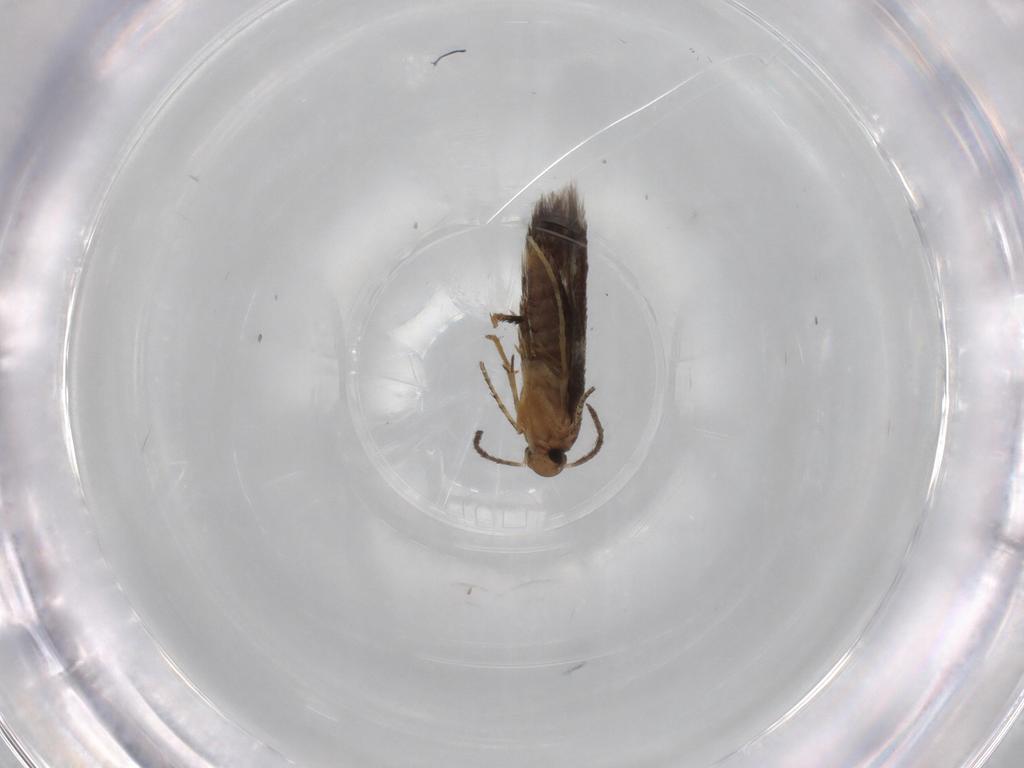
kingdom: Animalia
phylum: Arthropoda
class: Insecta
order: Lepidoptera
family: Heliozelidae
